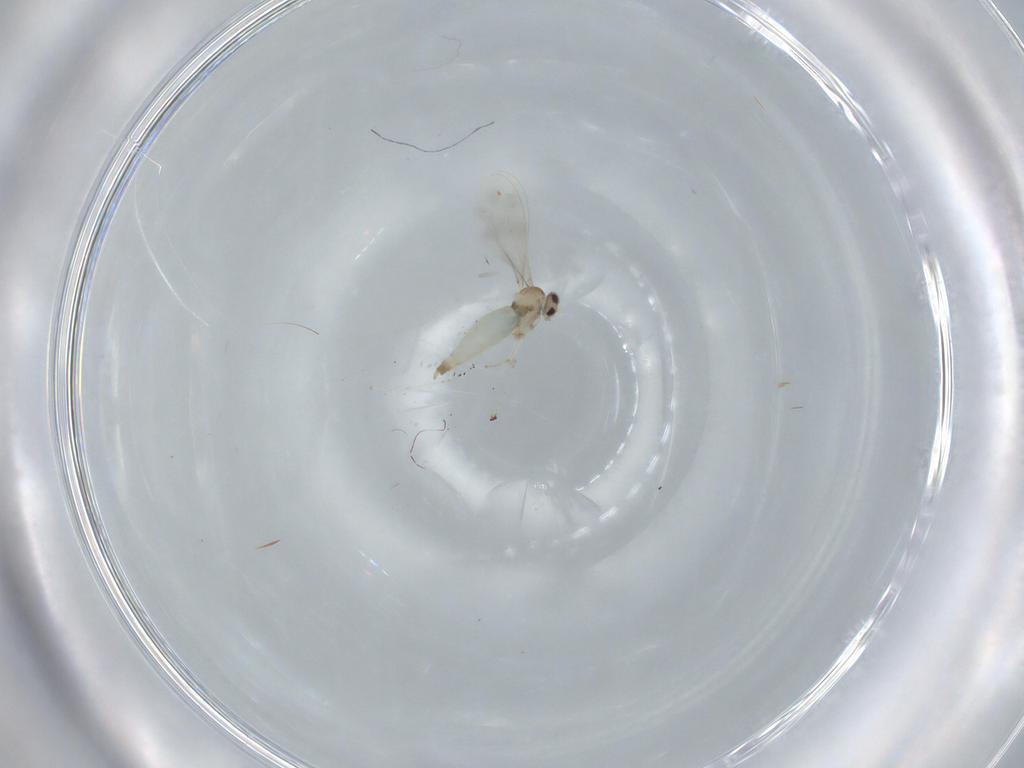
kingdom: Animalia
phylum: Arthropoda
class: Insecta
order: Diptera
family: Cecidomyiidae
